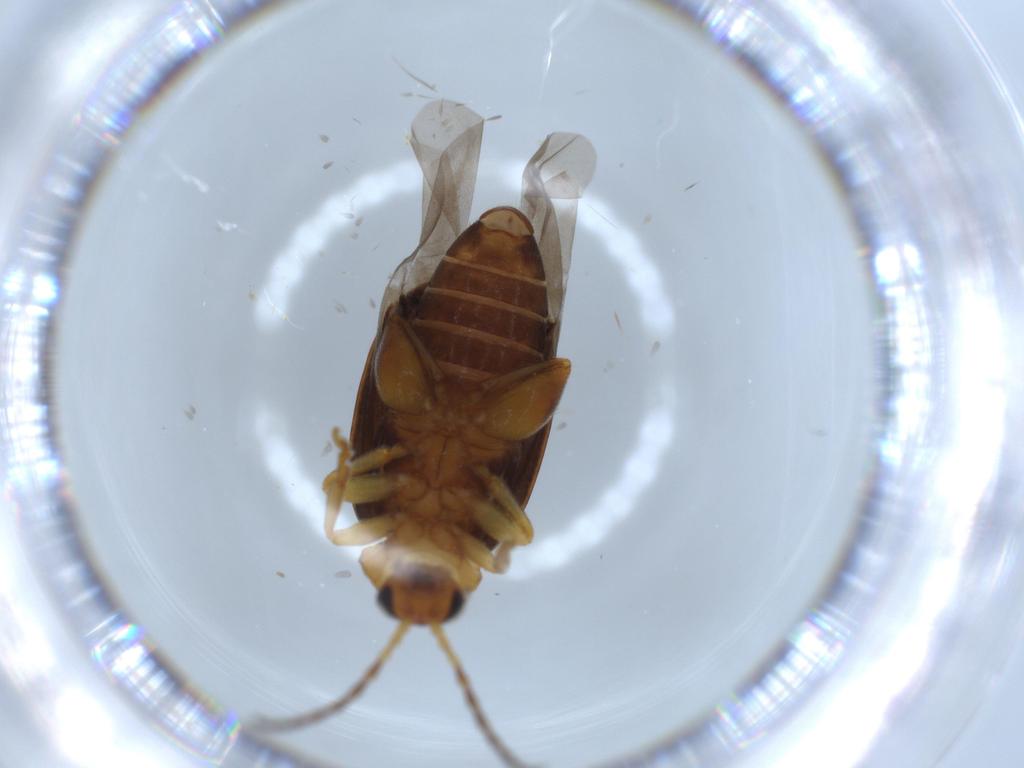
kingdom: Animalia
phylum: Arthropoda
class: Insecta
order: Coleoptera
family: Chrysomelidae
